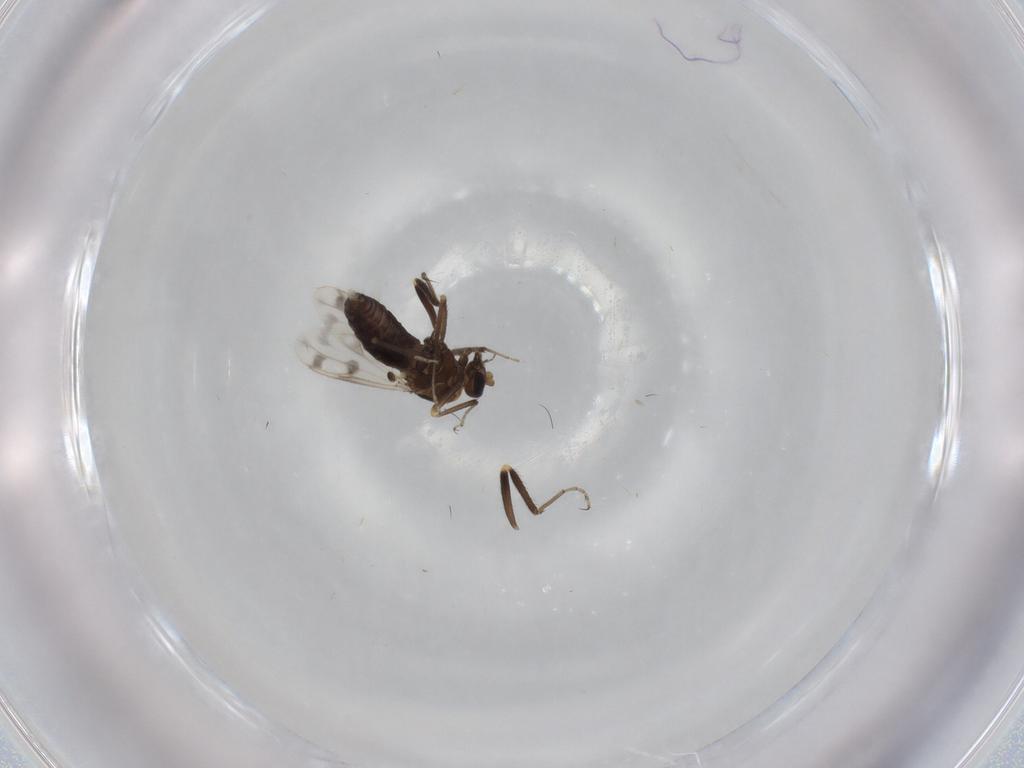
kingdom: Animalia
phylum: Arthropoda
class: Insecta
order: Diptera
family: Ceratopogonidae
